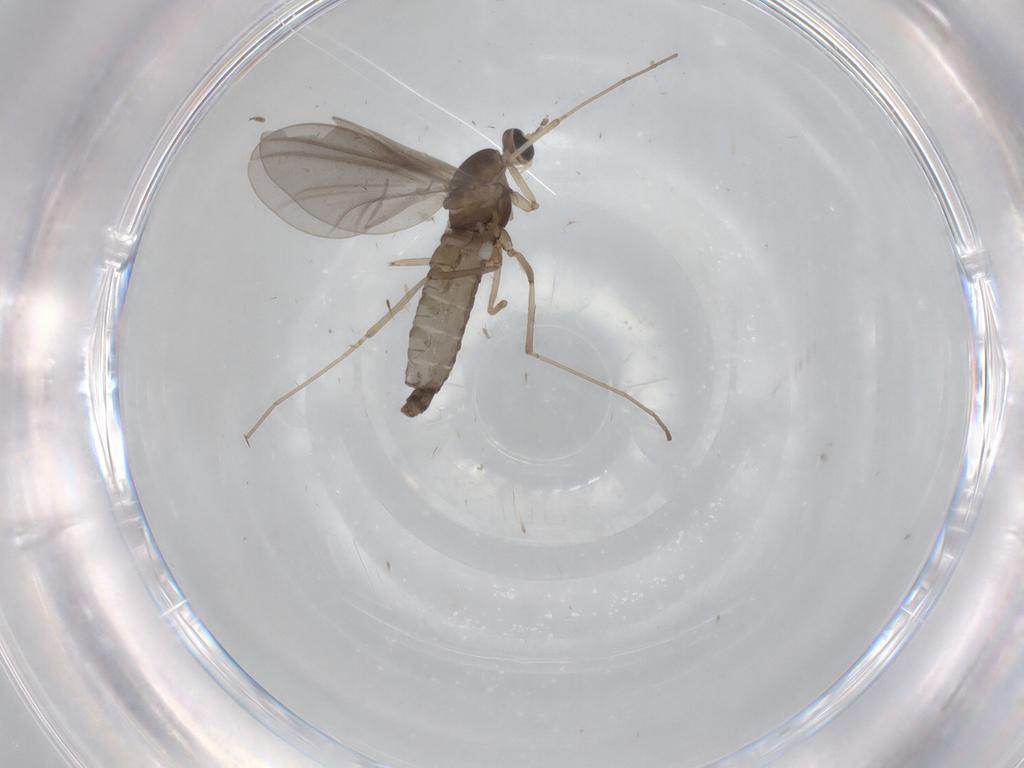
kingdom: Animalia
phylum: Arthropoda
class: Insecta
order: Diptera
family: Cecidomyiidae
